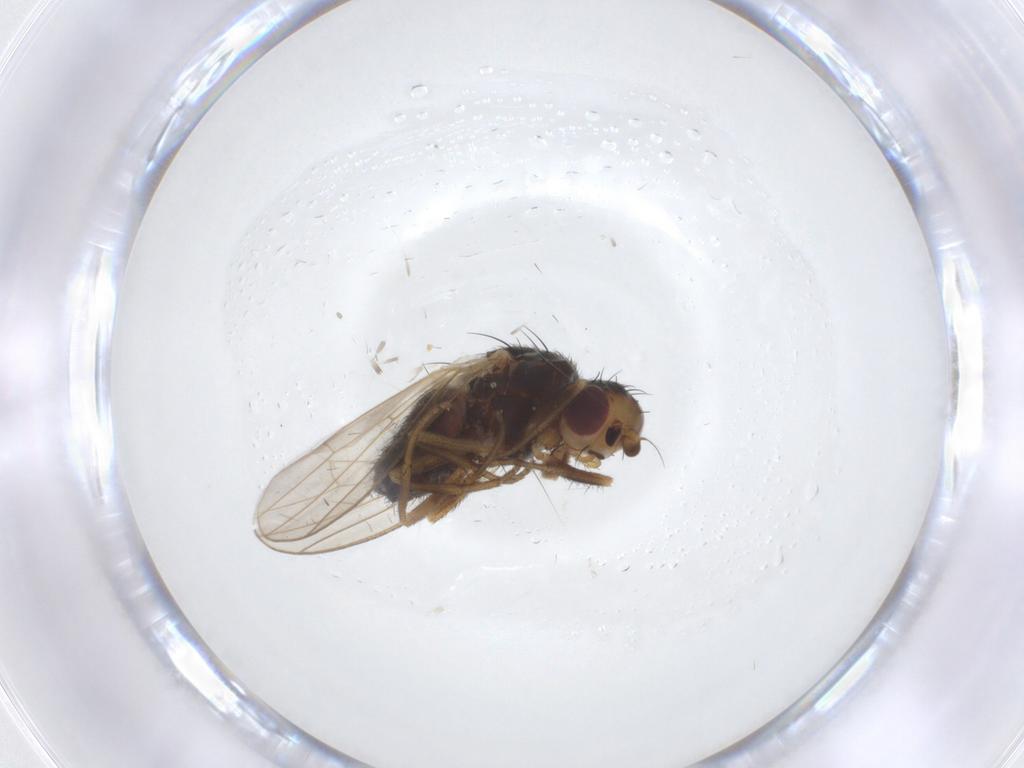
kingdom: Animalia
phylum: Arthropoda
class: Insecta
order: Diptera
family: Heleomyzidae
